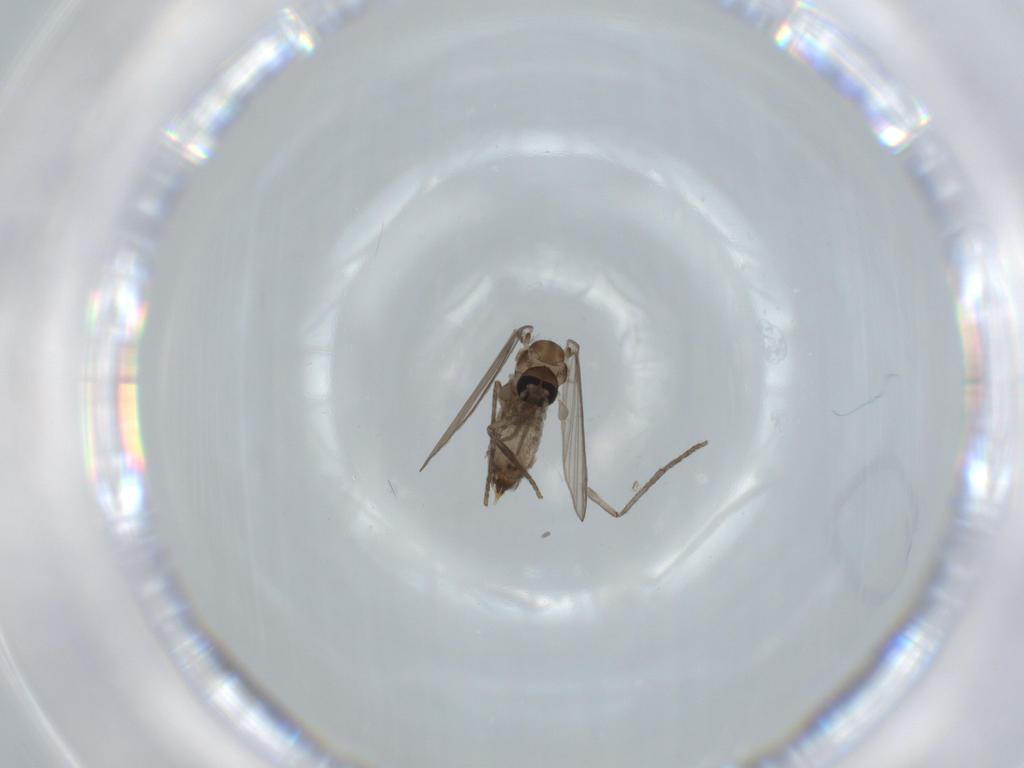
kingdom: Animalia
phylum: Arthropoda
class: Insecta
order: Diptera
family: Psychodidae
